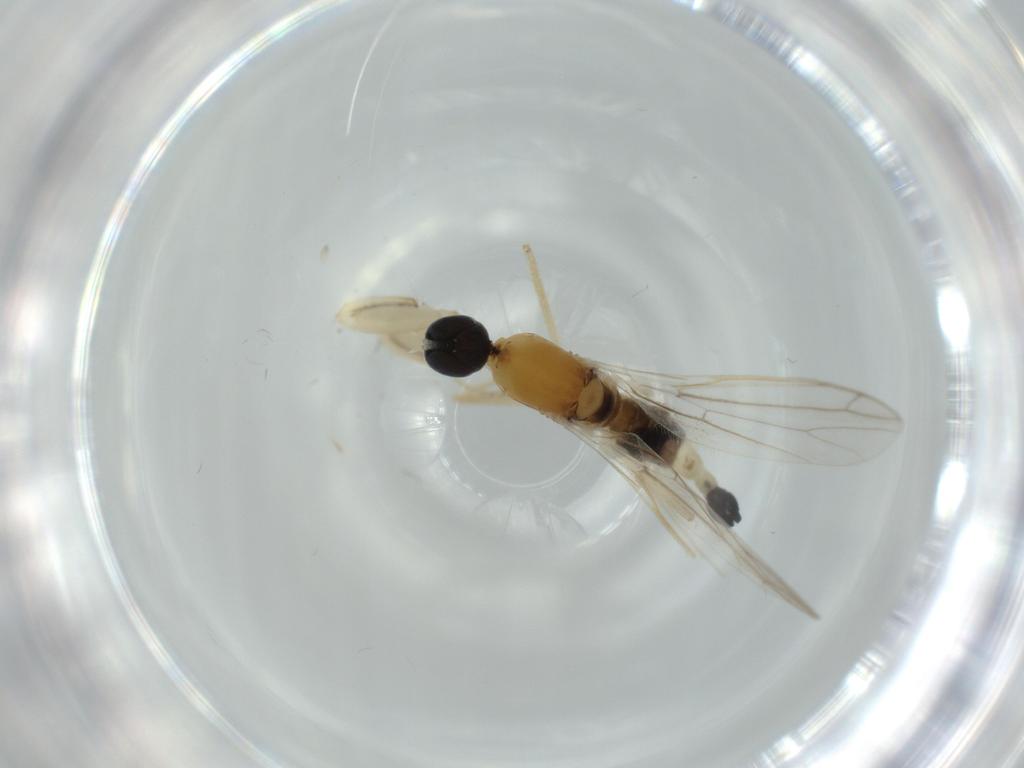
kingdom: Animalia
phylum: Arthropoda
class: Insecta
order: Diptera
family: Empididae
